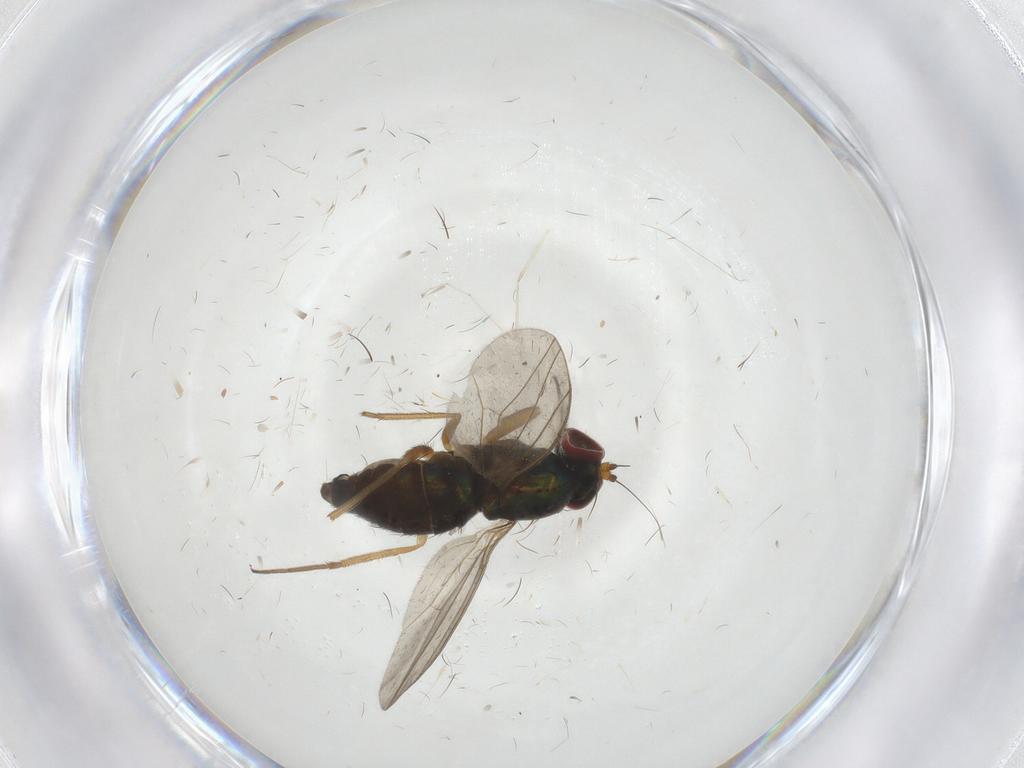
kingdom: Animalia
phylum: Arthropoda
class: Insecta
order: Diptera
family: Dolichopodidae
